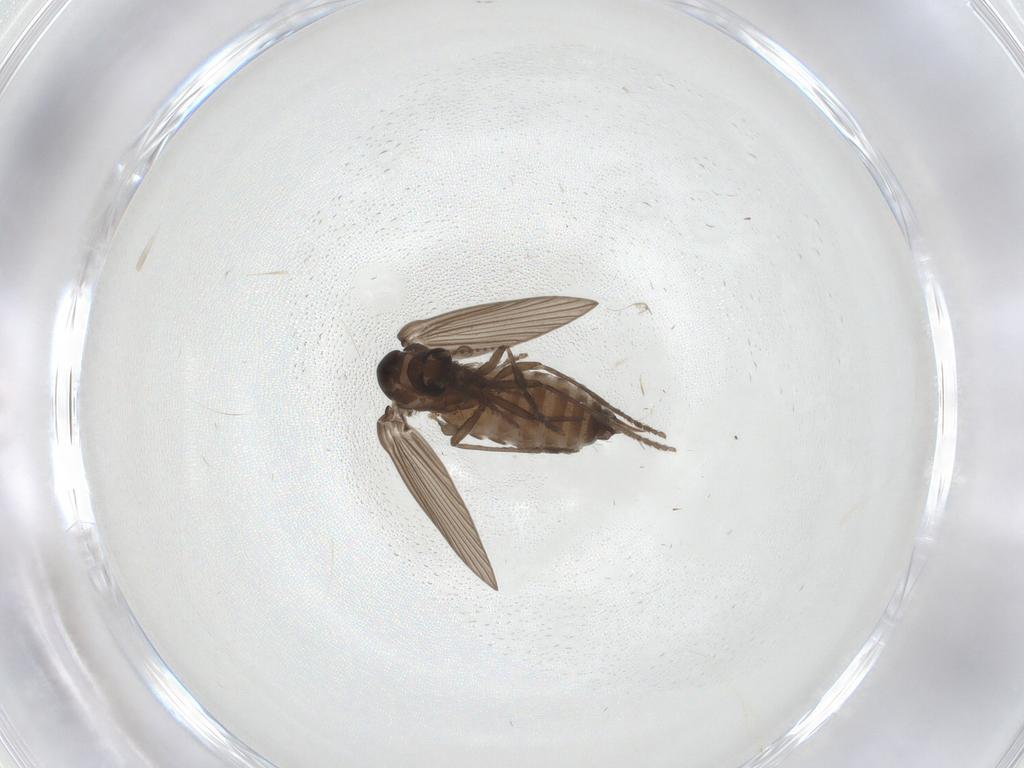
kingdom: Animalia
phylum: Arthropoda
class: Insecta
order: Diptera
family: Psychodidae
